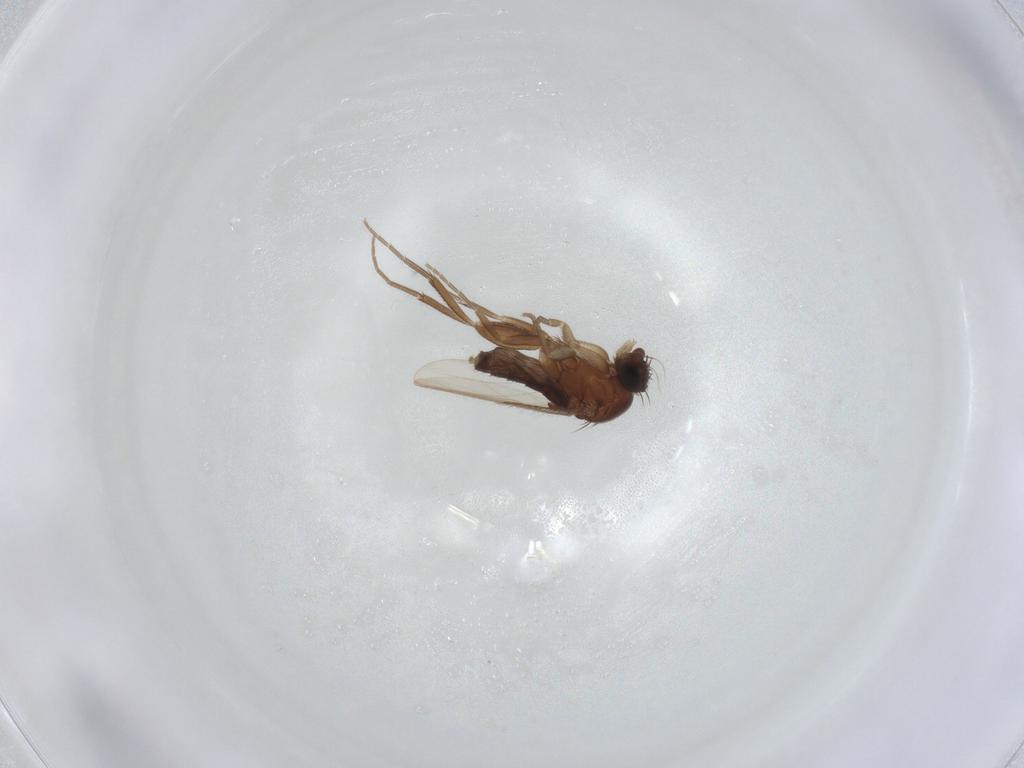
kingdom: Animalia
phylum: Arthropoda
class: Insecta
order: Diptera
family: Phoridae
